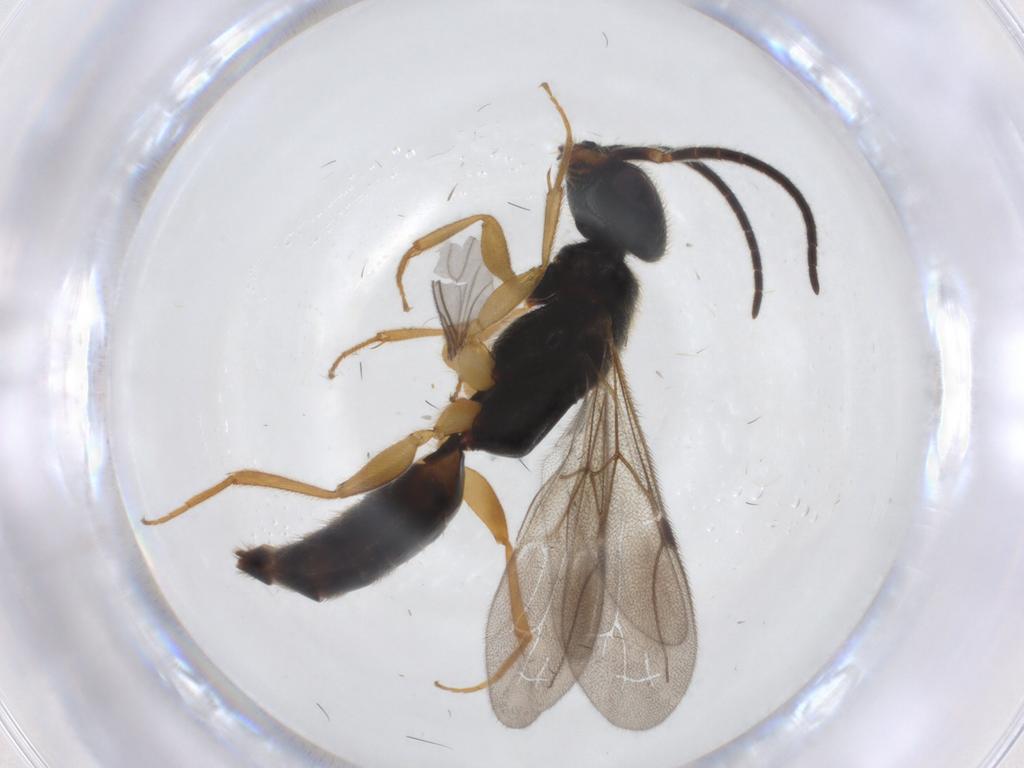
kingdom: Animalia
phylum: Arthropoda
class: Insecta
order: Hymenoptera
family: Bethylidae
